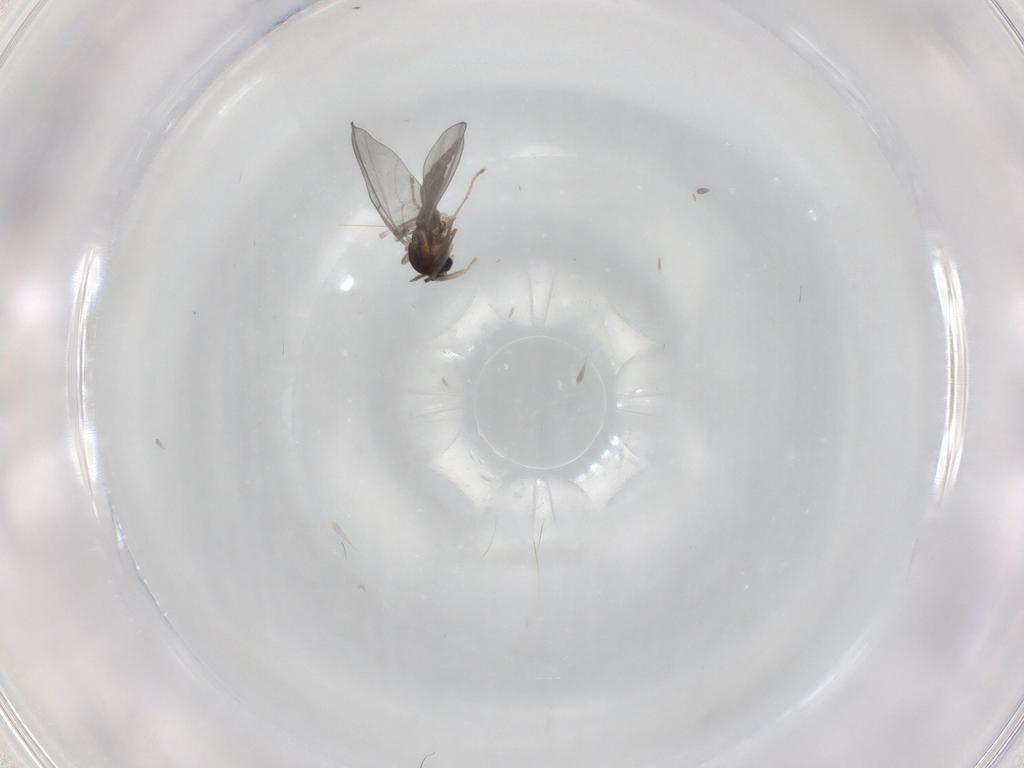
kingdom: Animalia
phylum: Arthropoda
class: Insecta
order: Diptera
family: Cecidomyiidae
